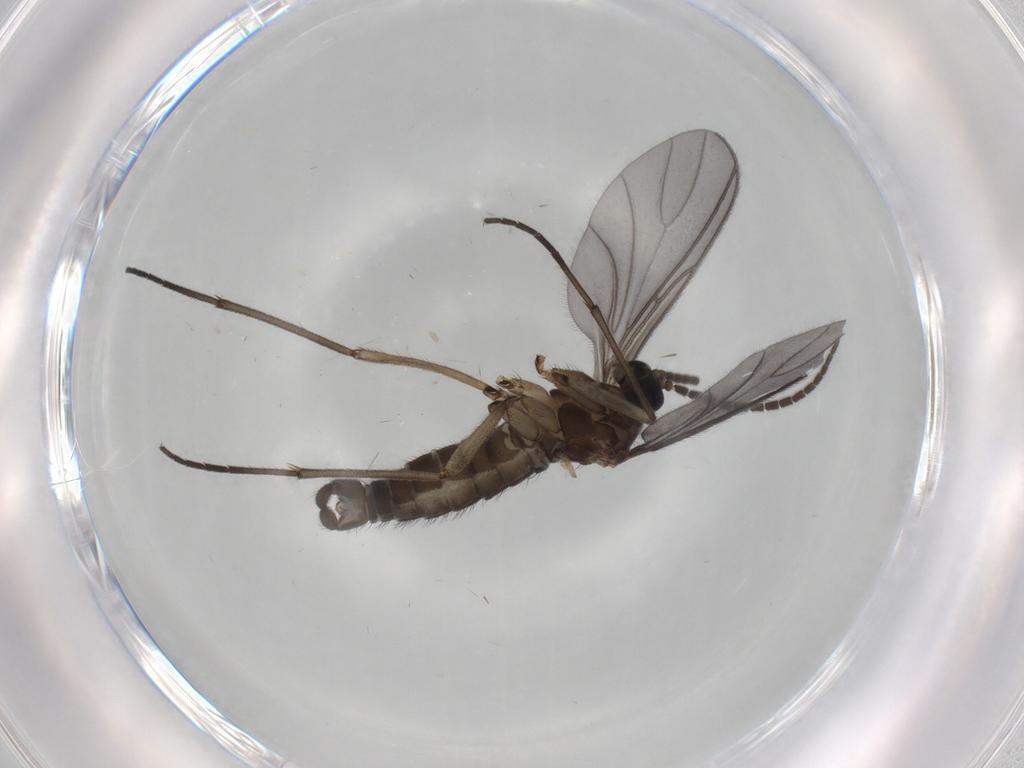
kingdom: Animalia
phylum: Arthropoda
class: Insecta
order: Diptera
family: Sciaridae
